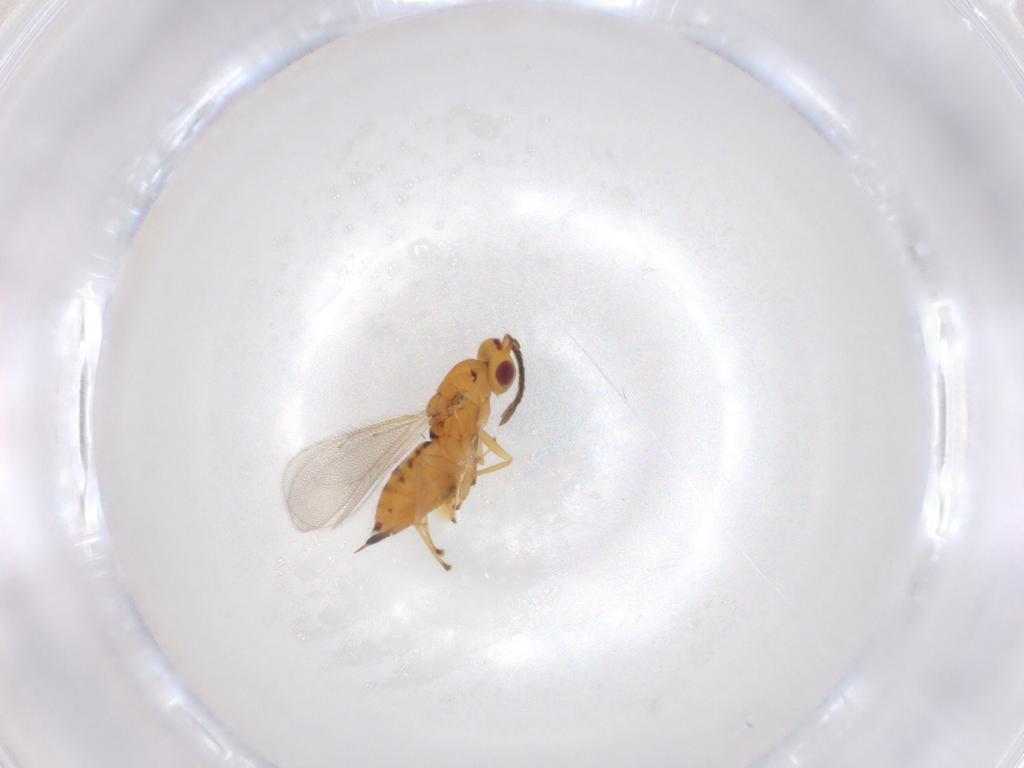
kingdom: Animalia
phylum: Arthropoda
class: Insecta
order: Hymenoptera
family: Eulophidae
